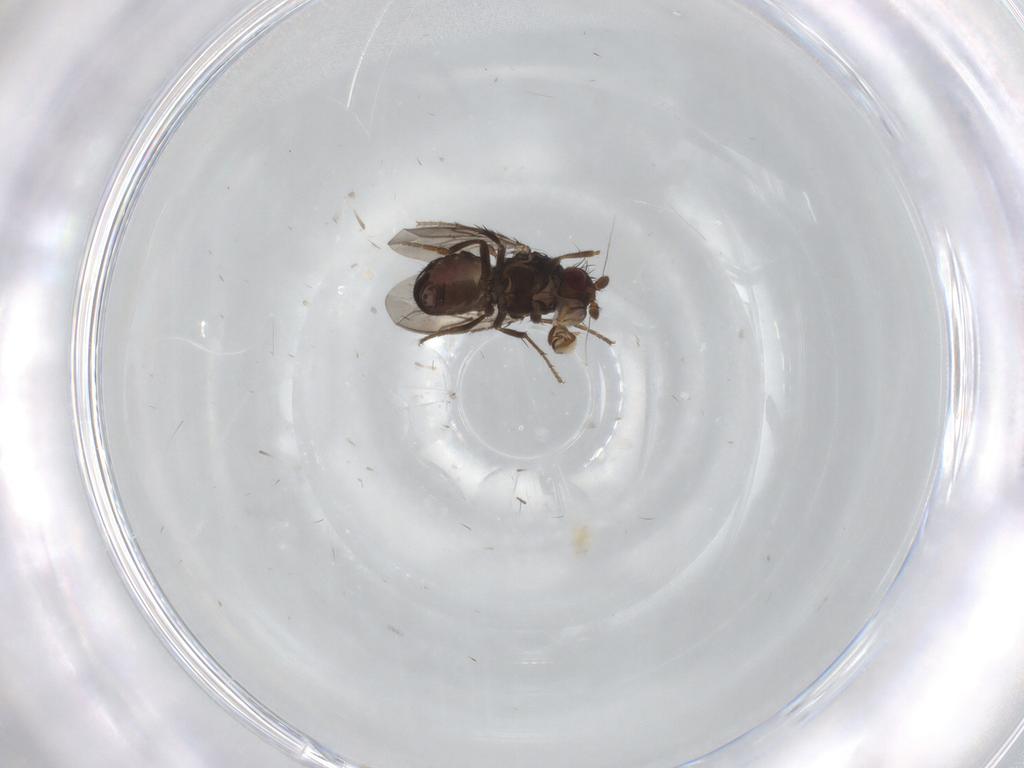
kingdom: Animalia
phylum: Arthropoda
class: Insecta
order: Diptera
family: Sphaeroceridae
